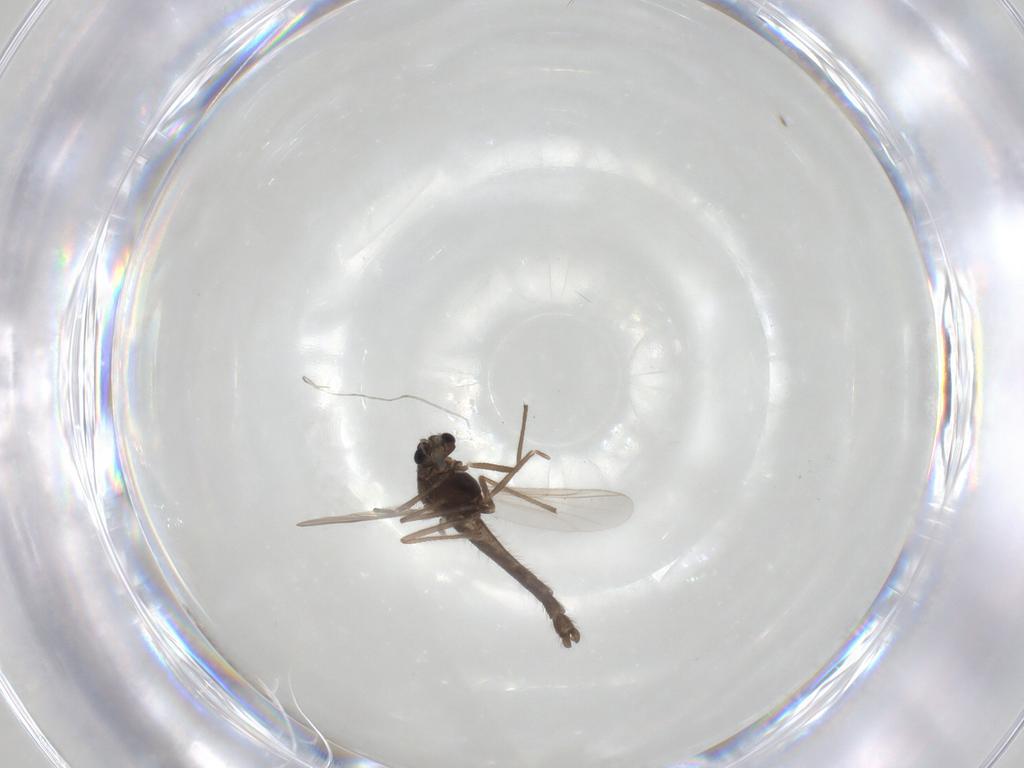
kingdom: Animalia
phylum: Arthropoda
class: Insecta
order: Diptera
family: Chironomidae
